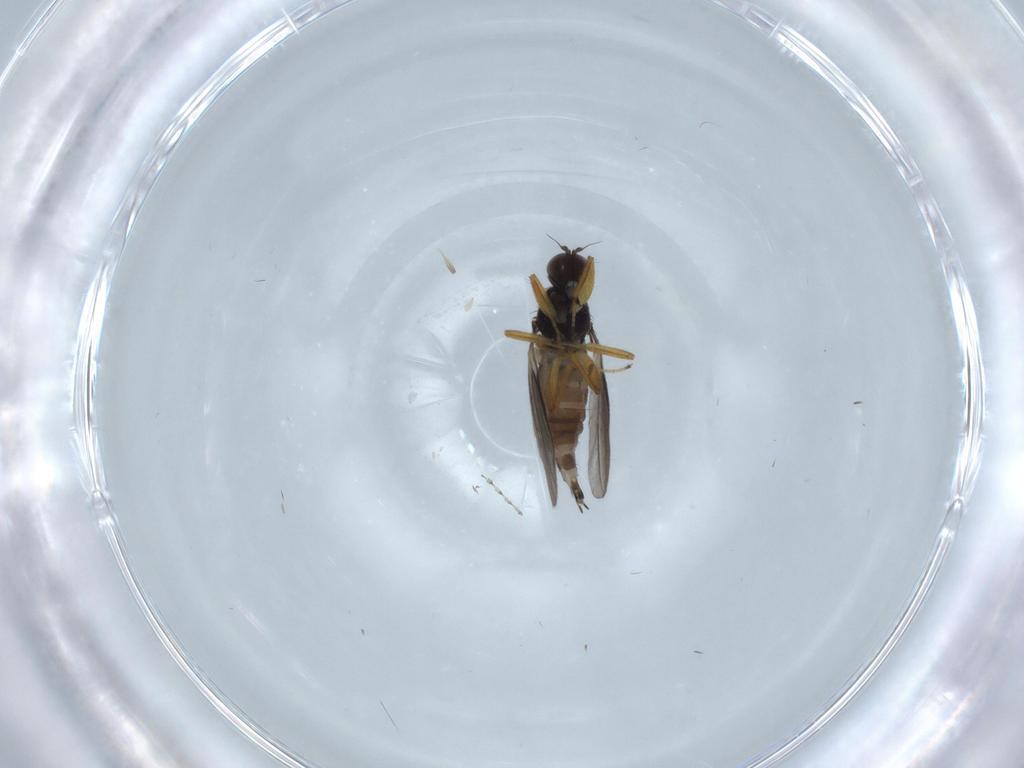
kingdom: Animalia
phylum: Arthropoda
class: Insecta
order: Diptera
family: Hybotidae
